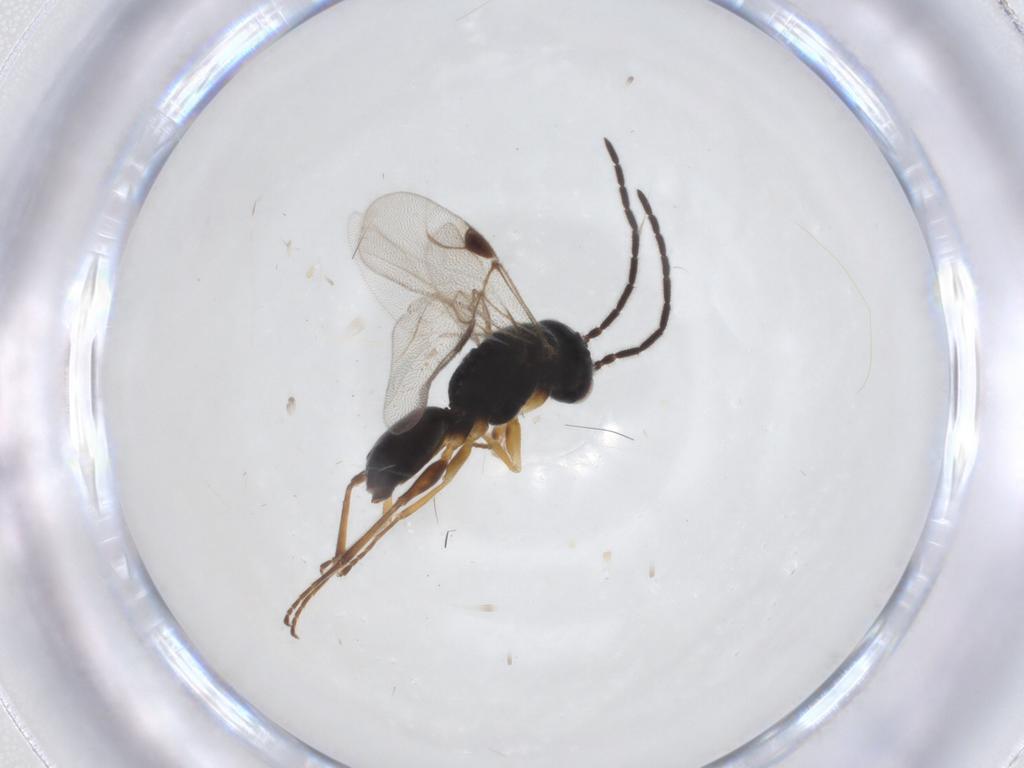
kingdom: Animalia
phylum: Arthropoda
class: Insecta
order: Hymenoptera
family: Dryinidae
